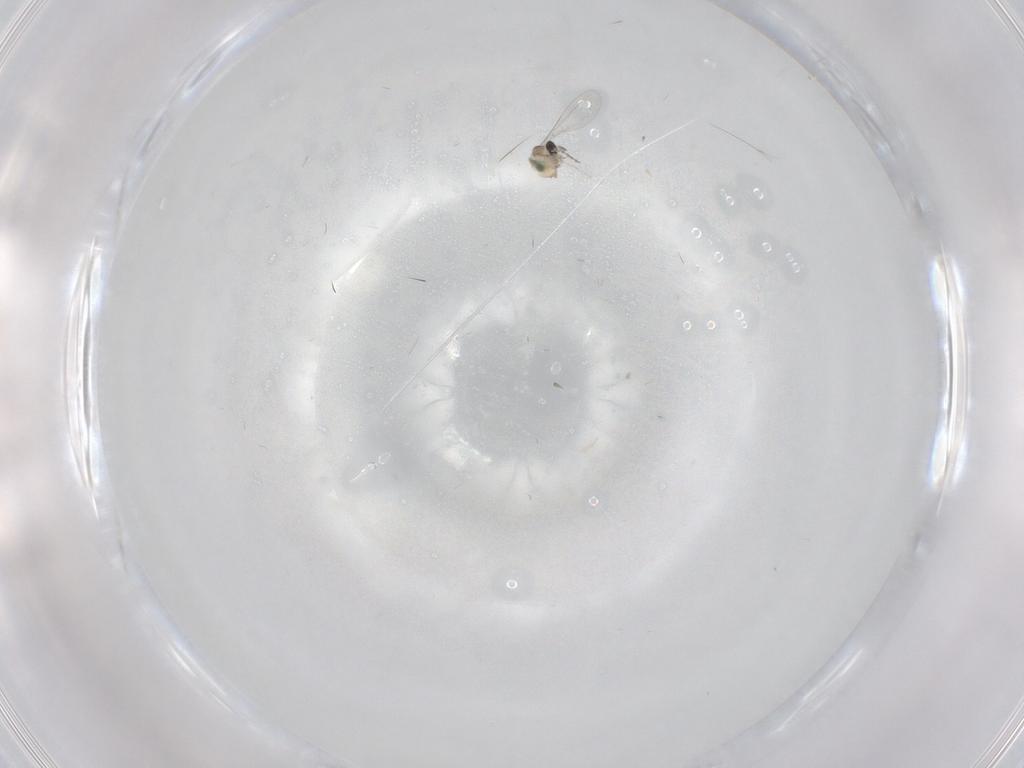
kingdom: Animalia
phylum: Arthropoda
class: Insecta
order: Diptera
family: Cecidomyiidae
